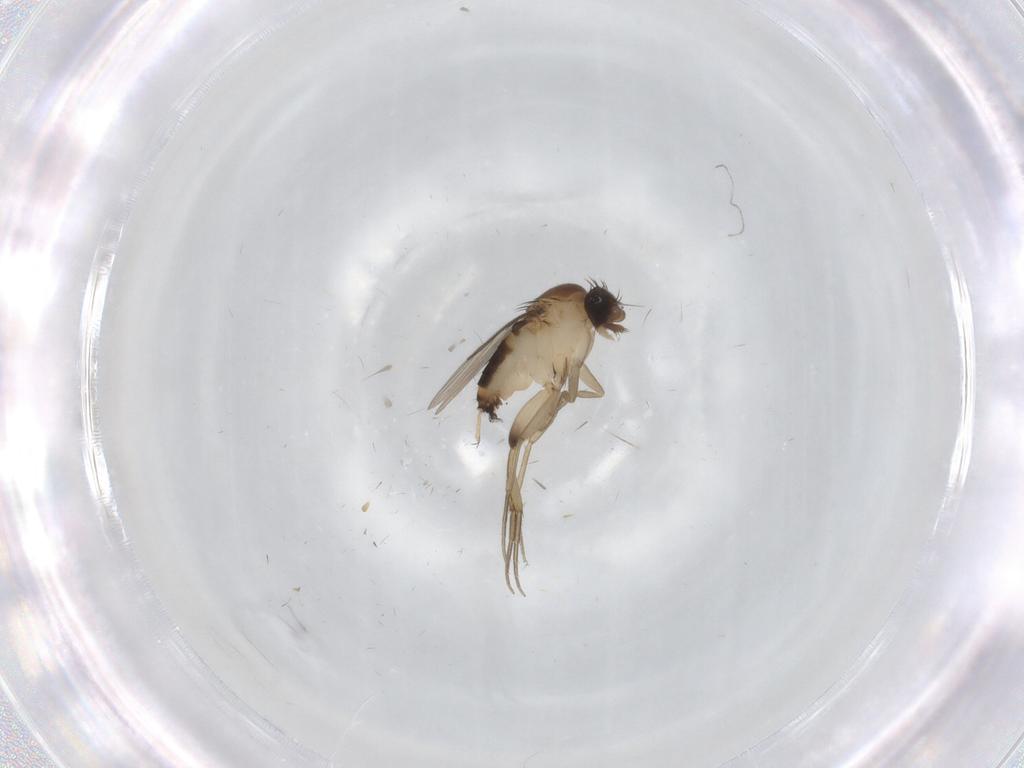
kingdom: Animalia
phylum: Arthropoda
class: Insecta
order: Diptera
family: Phoridae
